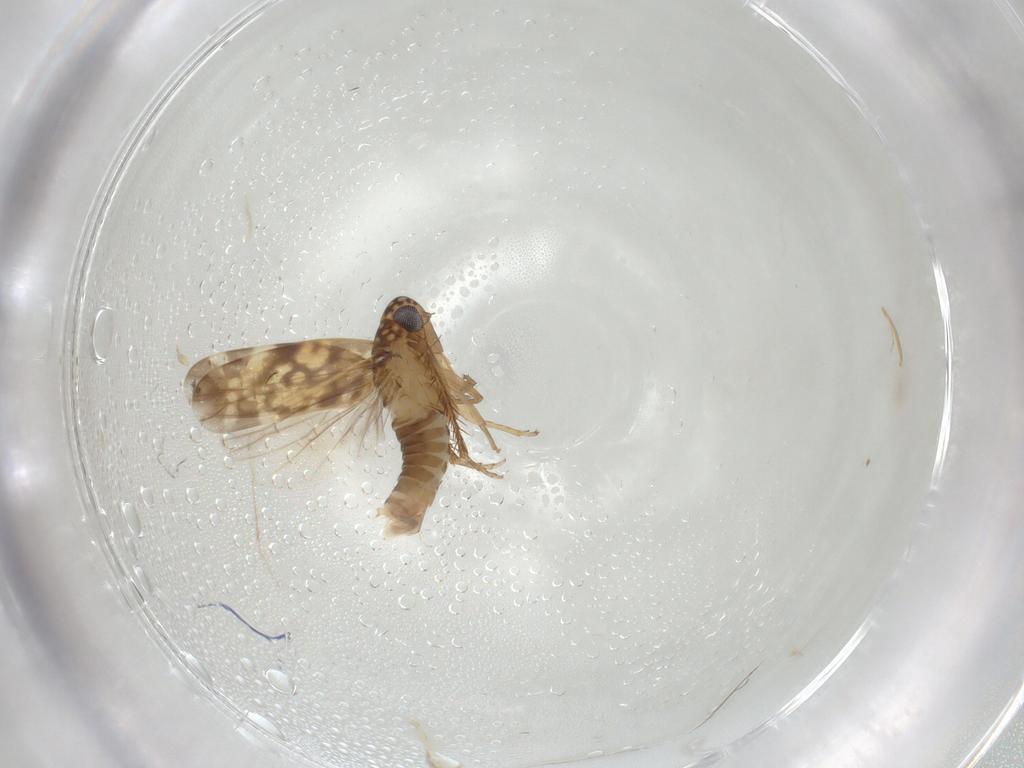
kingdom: Animalia
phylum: Arthropoda
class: Insecta
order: Hemiptera
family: Cicadellidae
